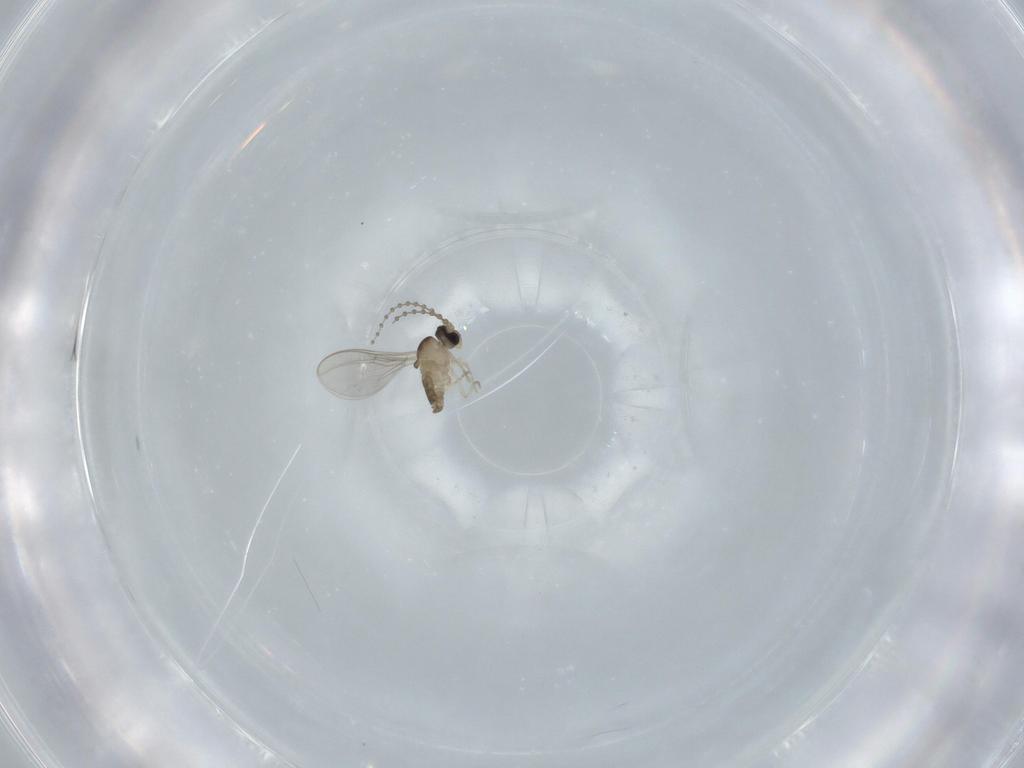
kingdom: Animalia
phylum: Arthropoda
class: Insecta
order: Diptera
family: Cecidomyiidae
